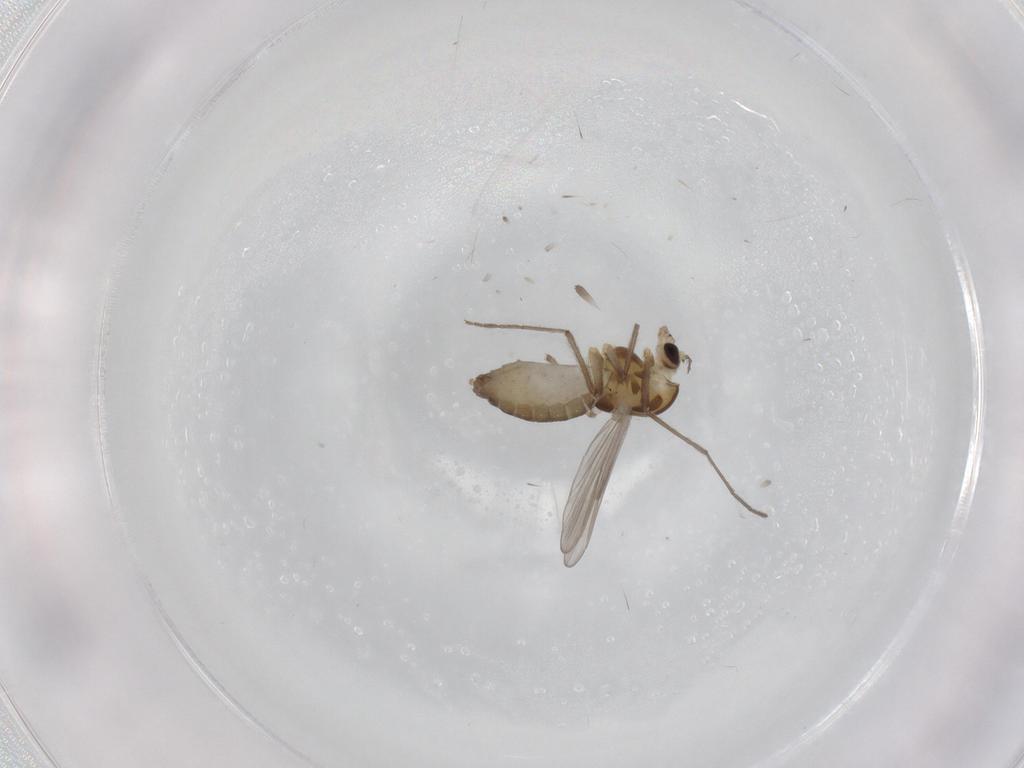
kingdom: Animalia
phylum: Arthropoda
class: Insecta
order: Diptera
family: Chironomidae
